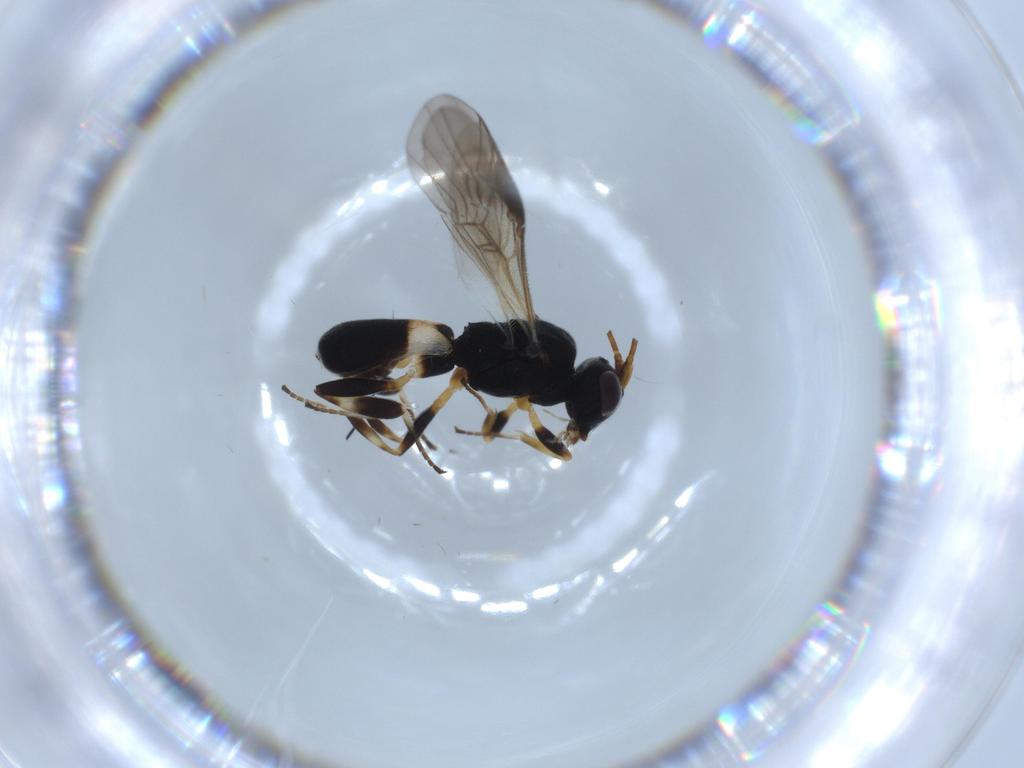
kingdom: Animalia
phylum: Arthropoda
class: Insecta
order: Hymenoptera
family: Braconidae
